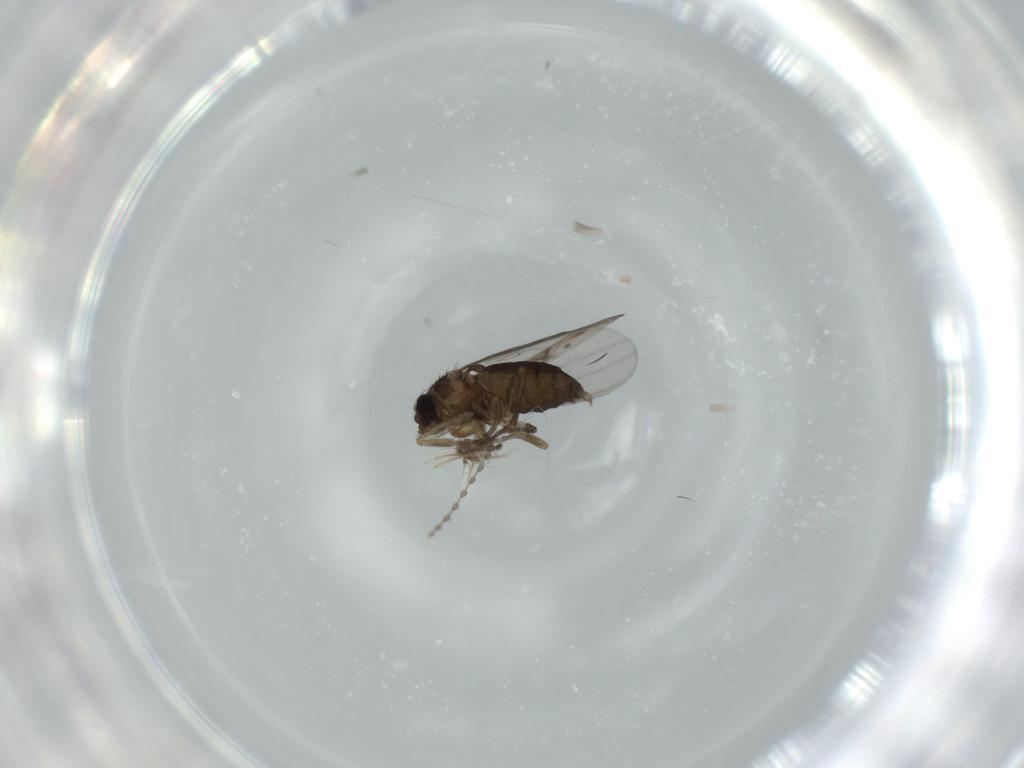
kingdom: Animalia
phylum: Arthropoda
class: Insecta
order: Diptera
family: Phoridae
